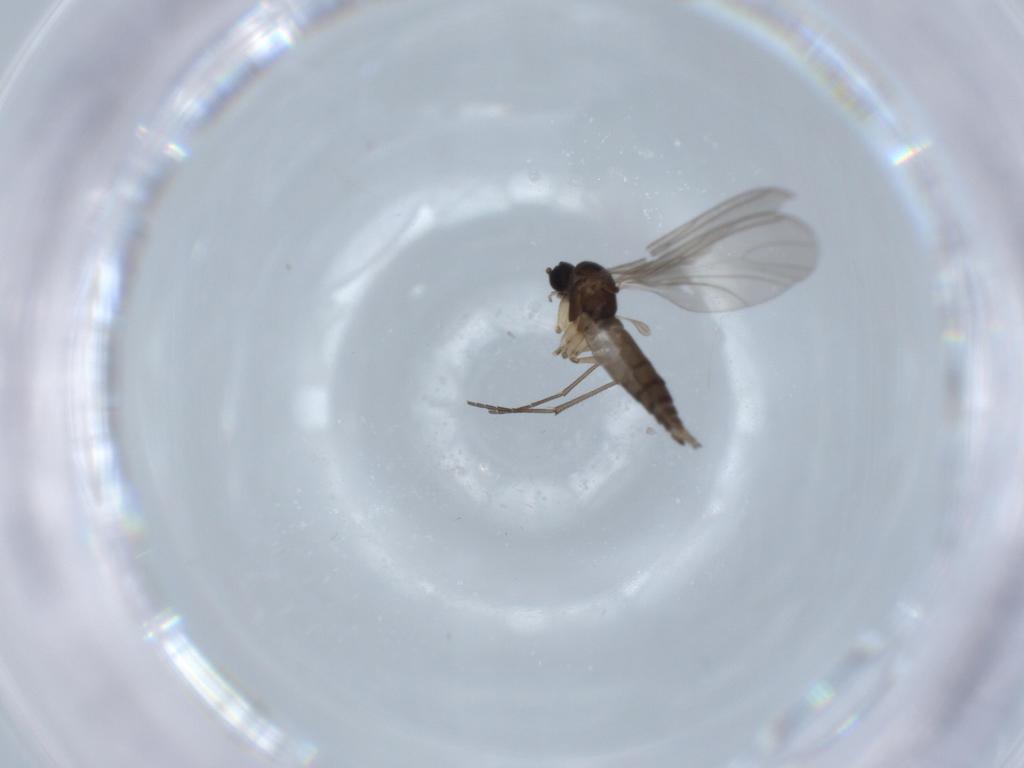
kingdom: Animalia
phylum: Arthropoda
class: Insecta
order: Diptera
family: Sciaridae
